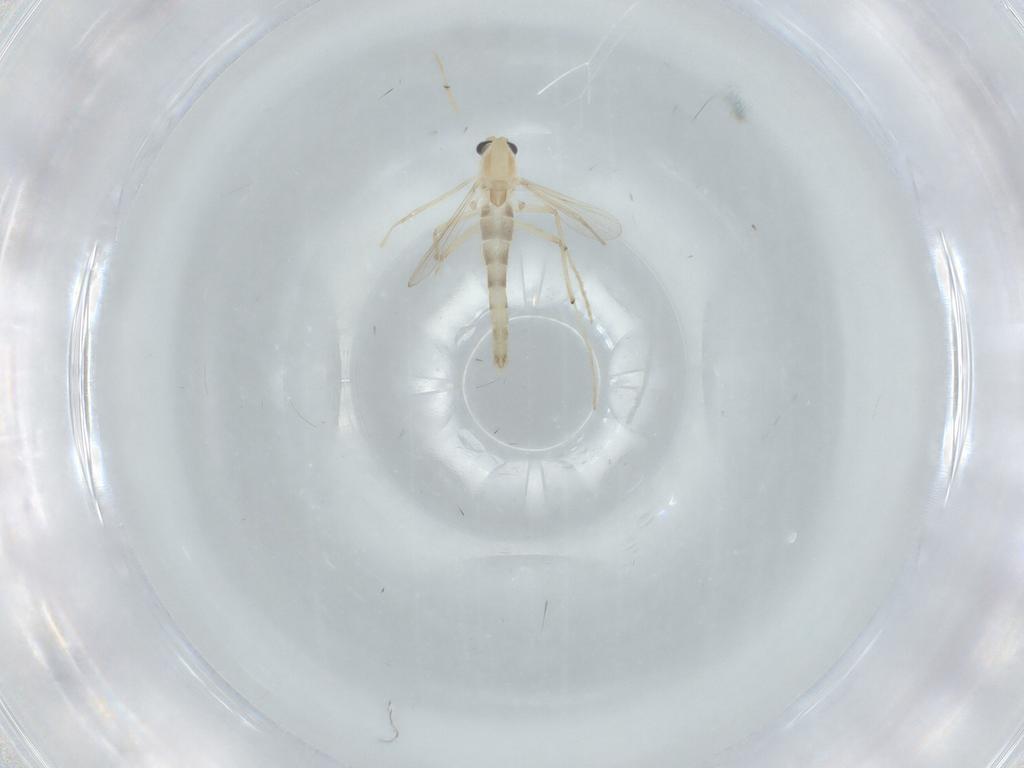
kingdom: Animalia
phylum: Arthropoda
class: Insecta
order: Diptera
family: Chironomidae
